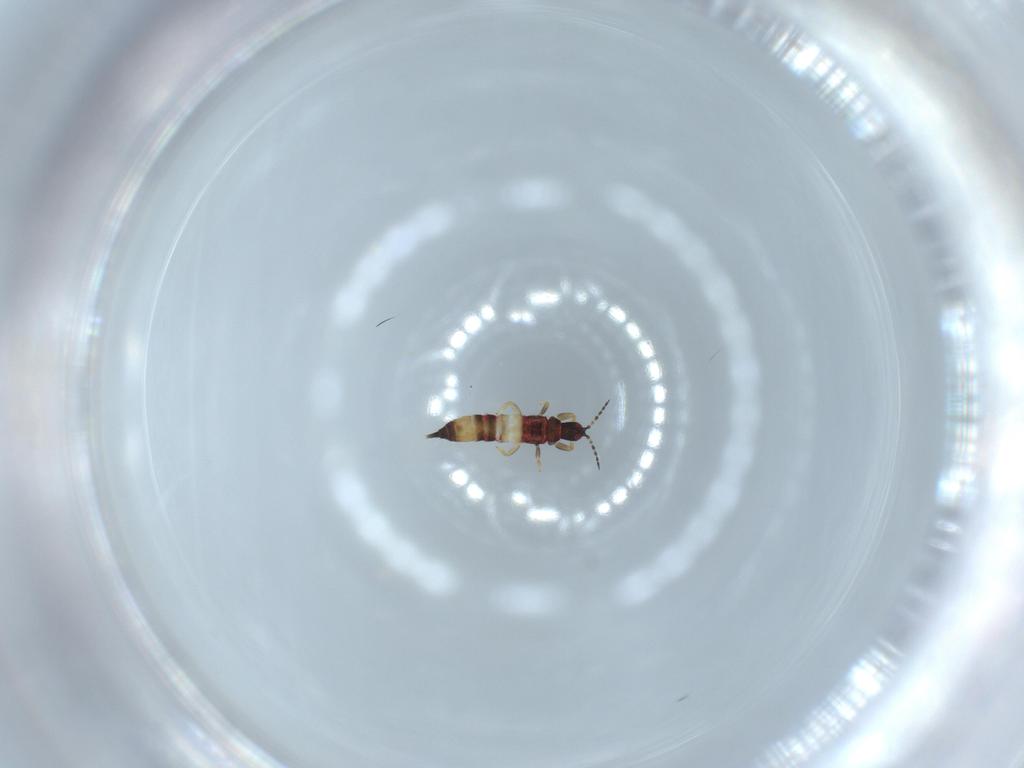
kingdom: Animalia
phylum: Arthropoda
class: Insecta
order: Thysanoptera
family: Phlaeothripidae
